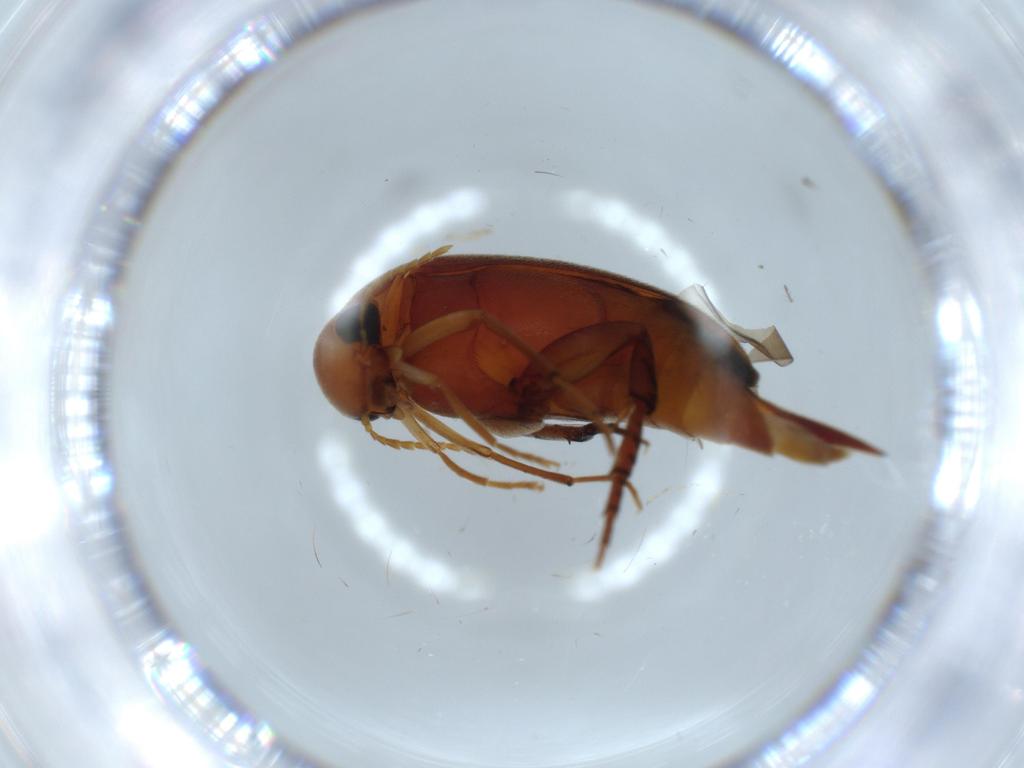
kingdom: Animalia
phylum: Arthropoda
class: Insecta
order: Coleoptera
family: Mordellidae
